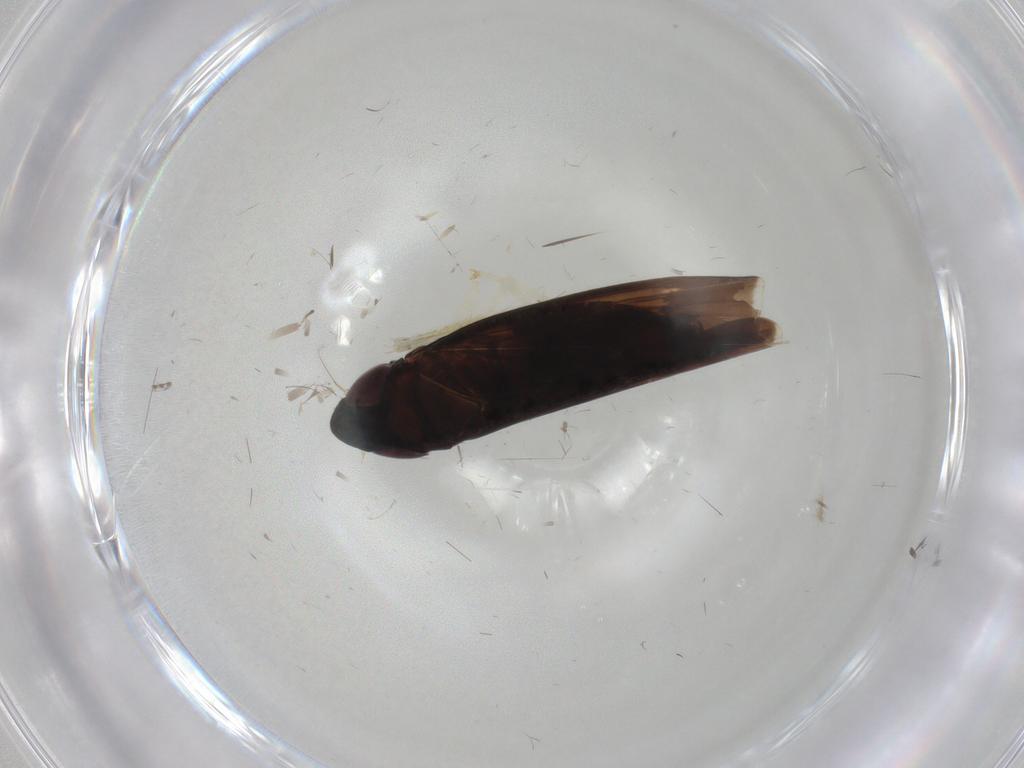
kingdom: Animalia
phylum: Arthropoda
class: Insecta
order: Hemiptera
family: Cicadellidae
